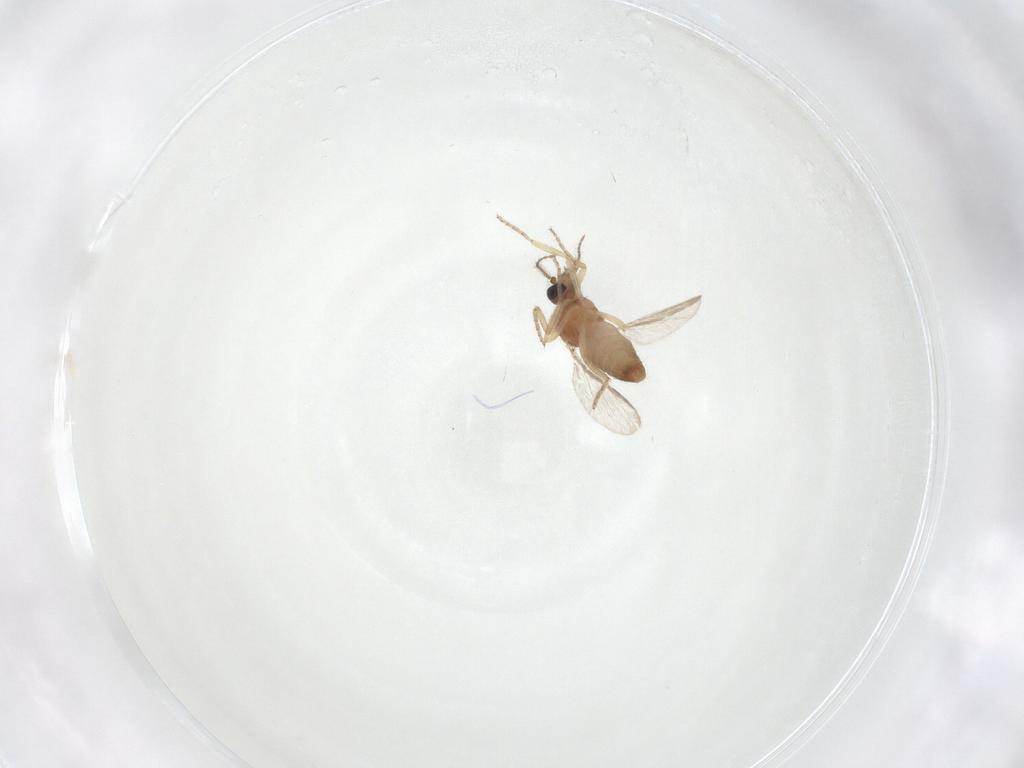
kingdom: Animalia
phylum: Arthropoda
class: Insecta
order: Diptera
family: Ceratopogonidae
